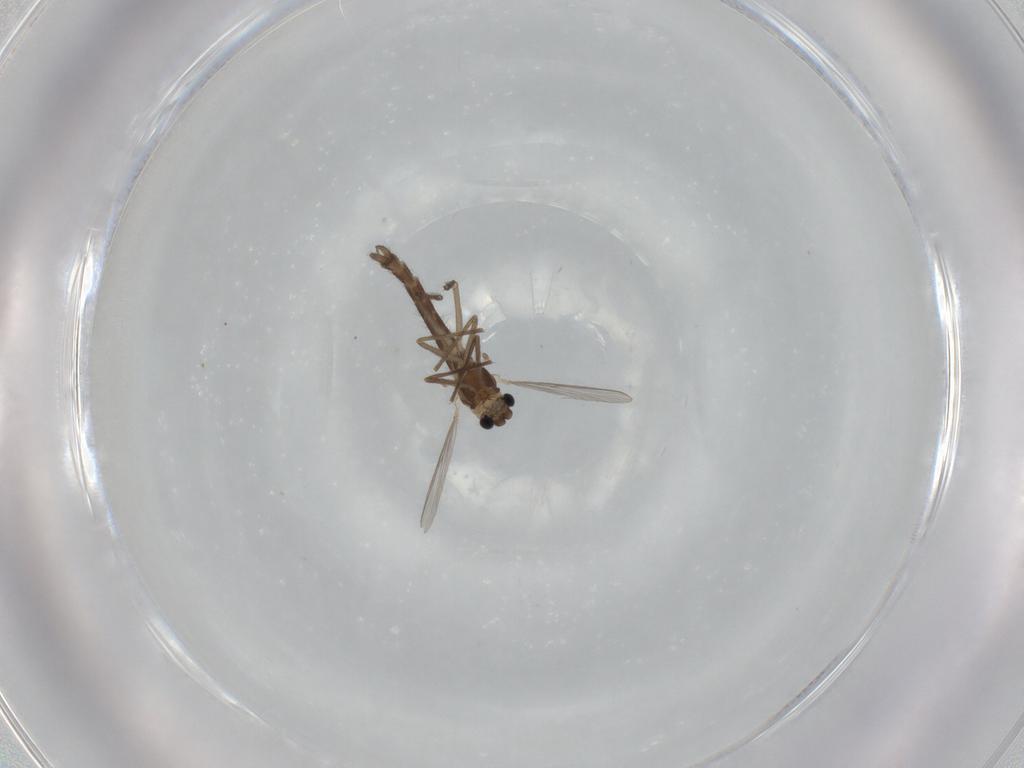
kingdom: Animalia
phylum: Arthropoda
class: Insecta
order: Diptera
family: Chironomidae
